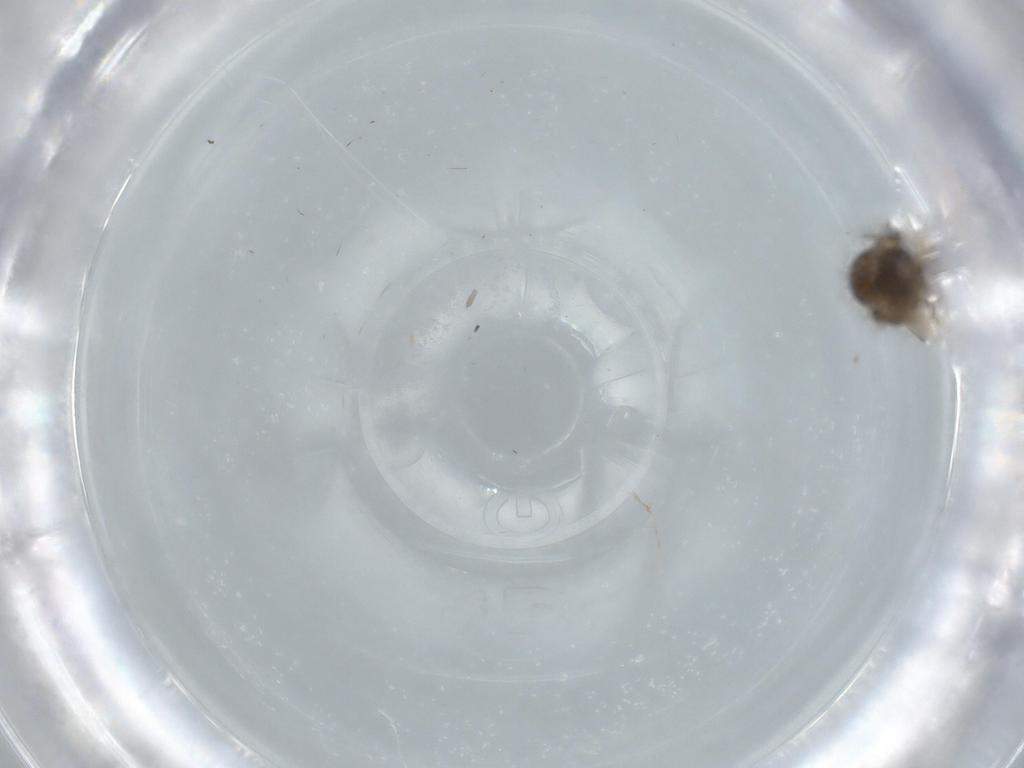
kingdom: Animalia
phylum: Arthropoda
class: Insecta
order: Diptera
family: Ceratopogonidae
